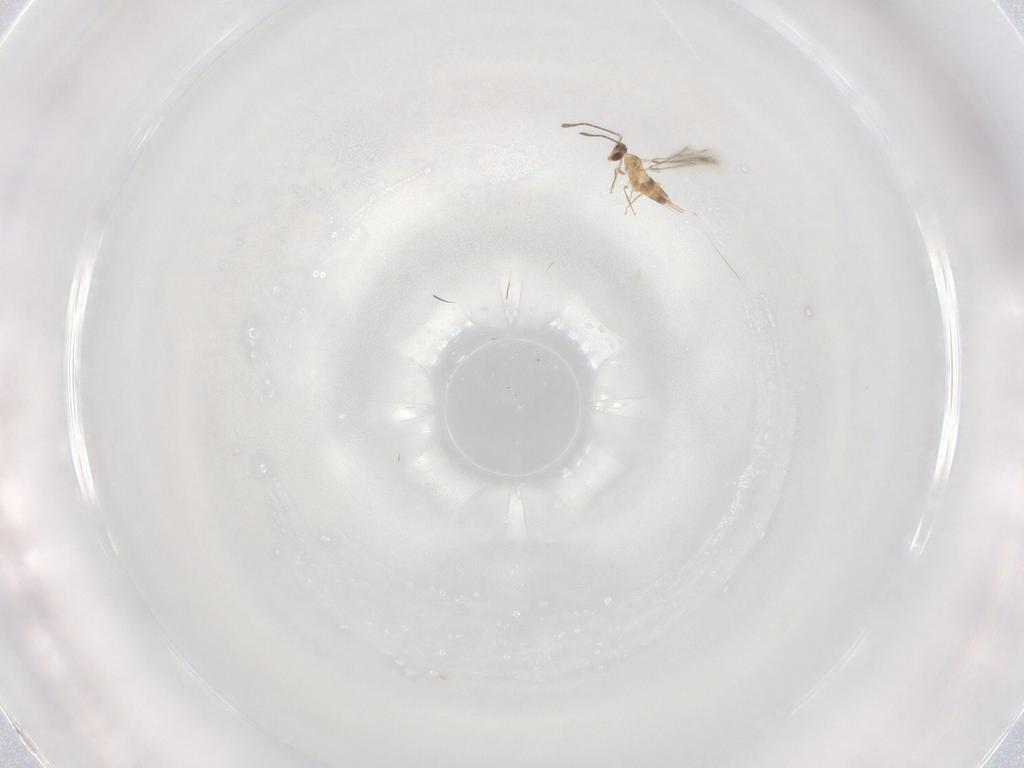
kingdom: Animalia
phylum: Arthropoda
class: Insecta
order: Hymenoptera
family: Mymaridae
